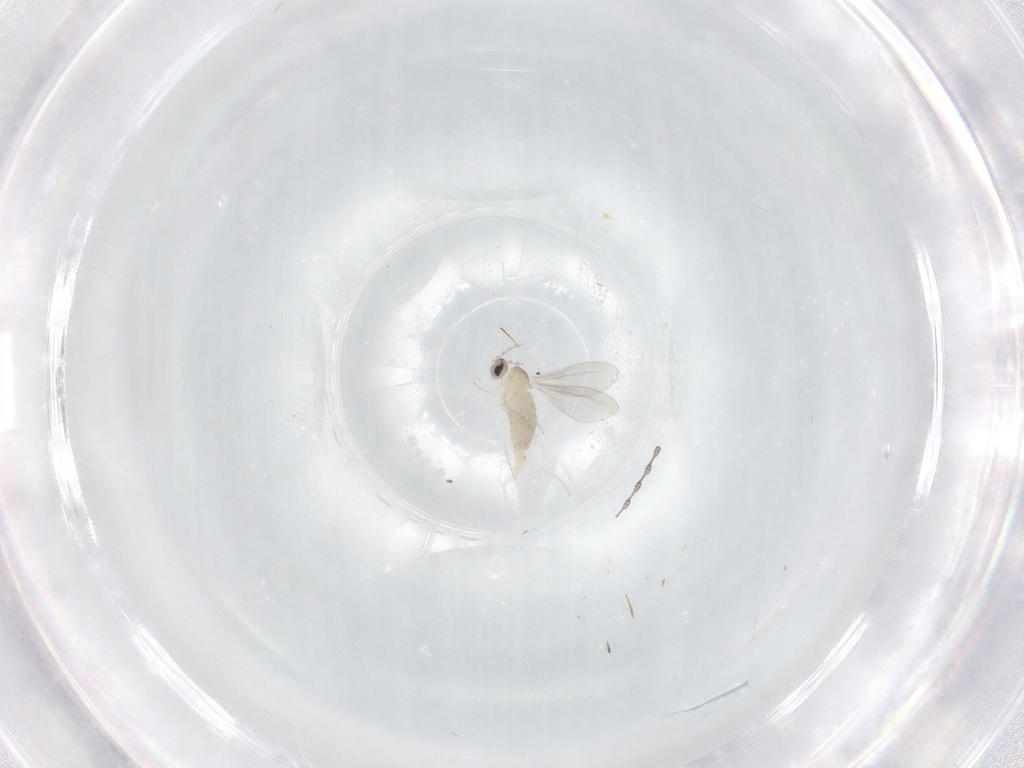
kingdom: Animalia
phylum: Arthropoda
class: Insecta
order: Diptera
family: Cecidomyiidae
